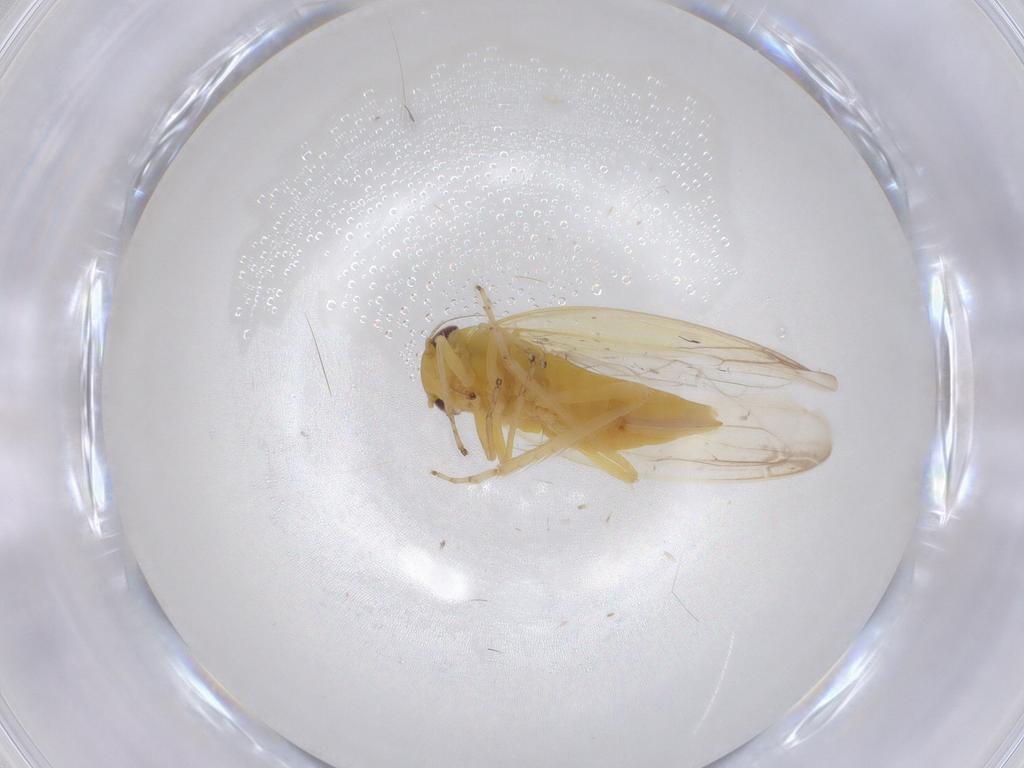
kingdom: Animalia
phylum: Arthropoda
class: Insecta
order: Hemiptera
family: Cicadellidae
